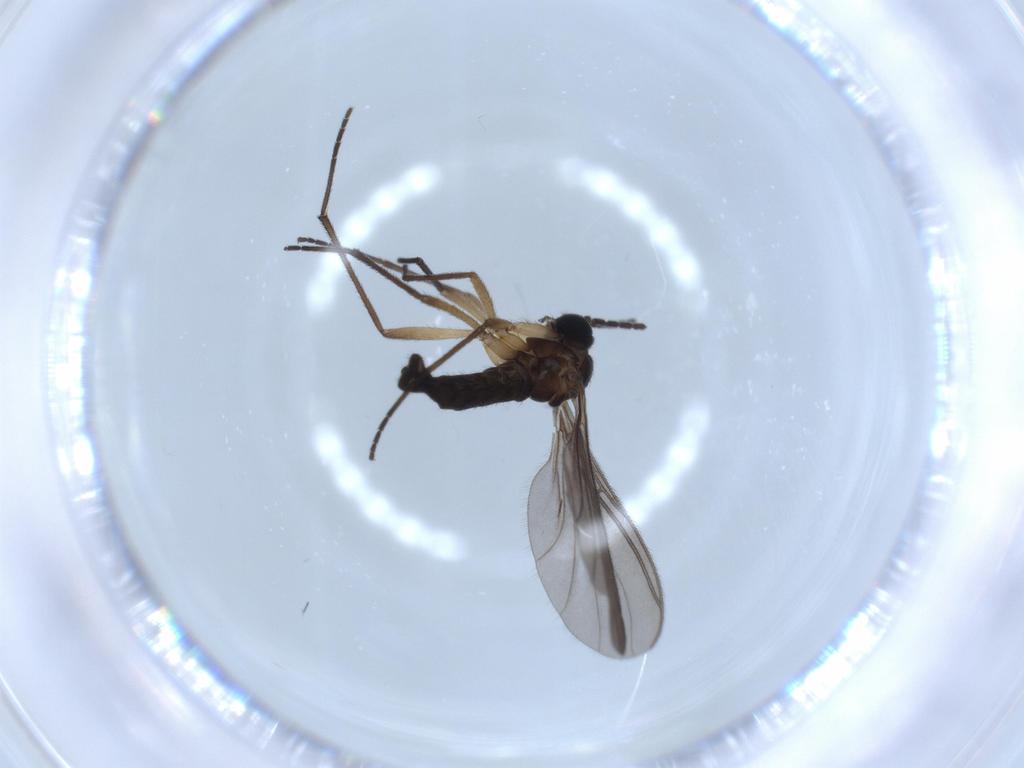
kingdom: Animalia
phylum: Arthropoda
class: Insecta
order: Diptera
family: Sciaridae
